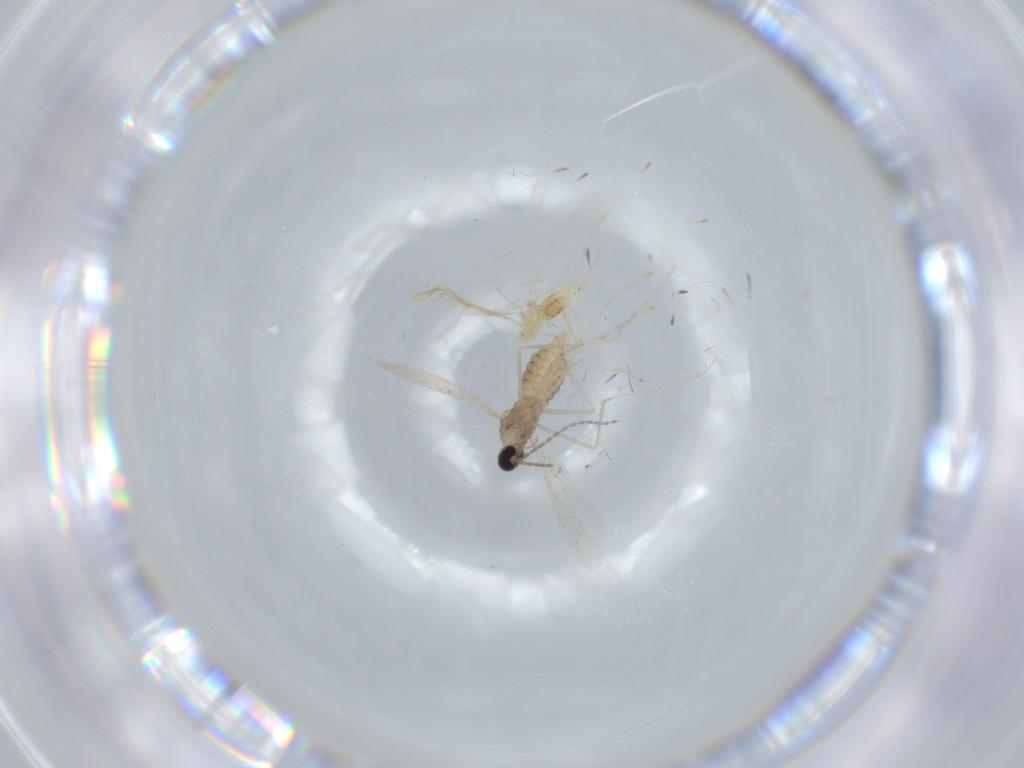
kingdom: Animalia
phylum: Arthropoda
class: Insecta
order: Diptera
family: Cecidomyiidae
